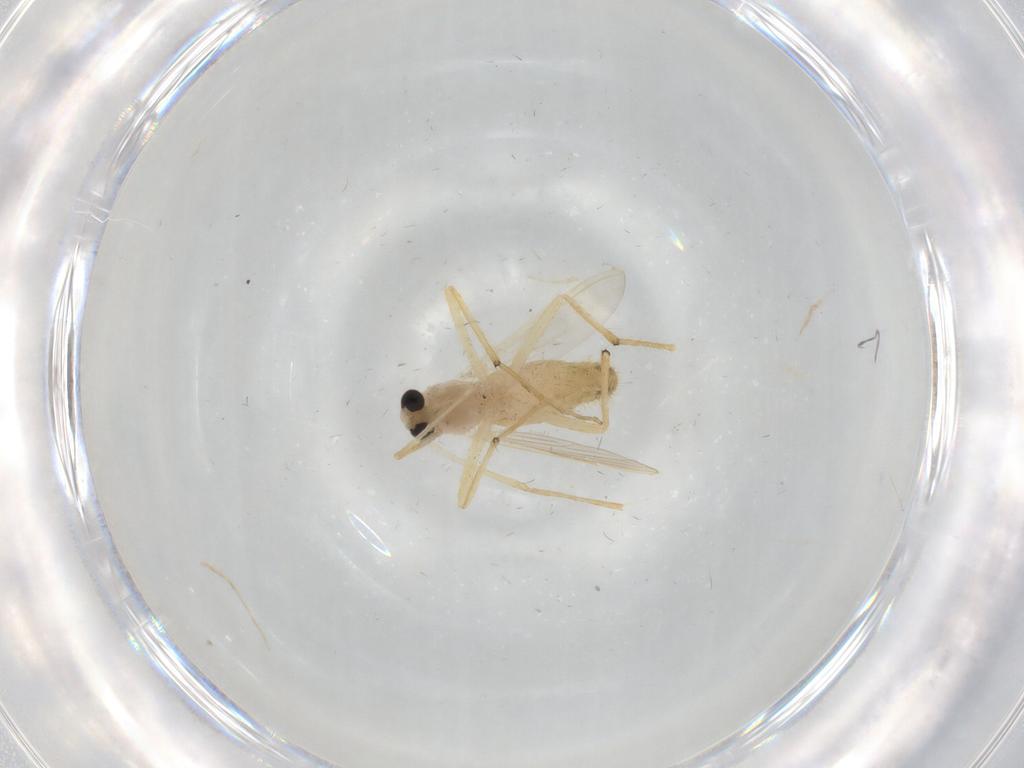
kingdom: Animalia
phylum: Arthropoda
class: Insecta
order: Diptera
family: Chironomidae
